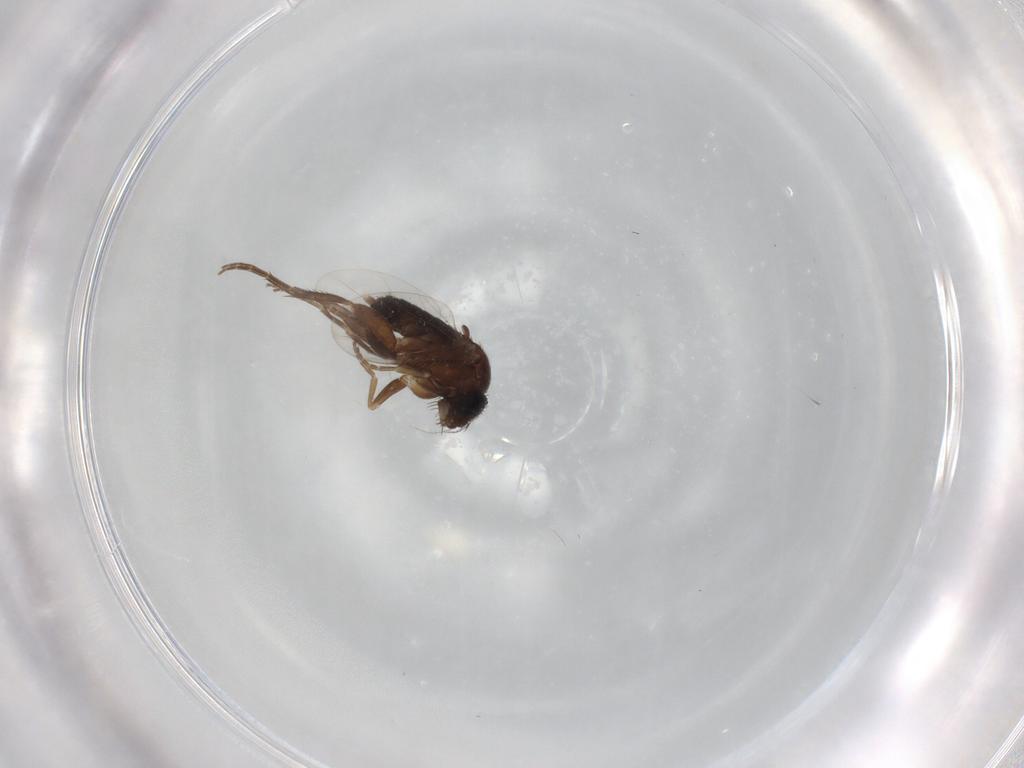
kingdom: Animalia
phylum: Arthropoda
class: Insecta
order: Diptera
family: Phoridae
